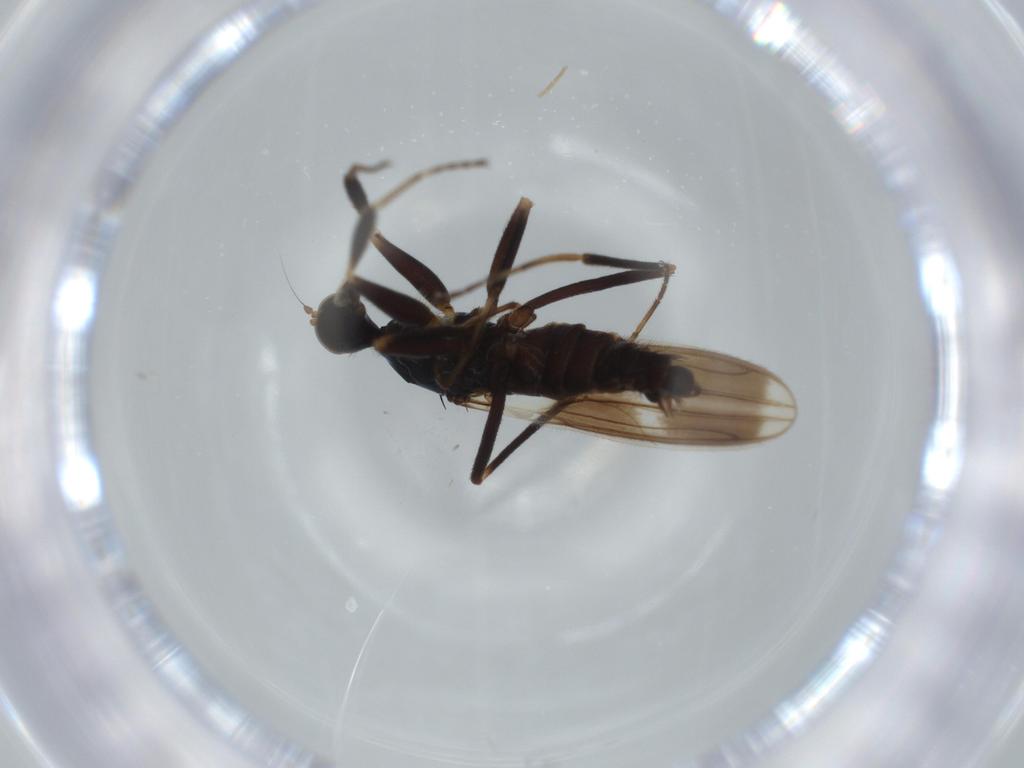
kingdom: Animalia
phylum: Arthropoda
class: Insecta
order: Diptera
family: Hybotidae
